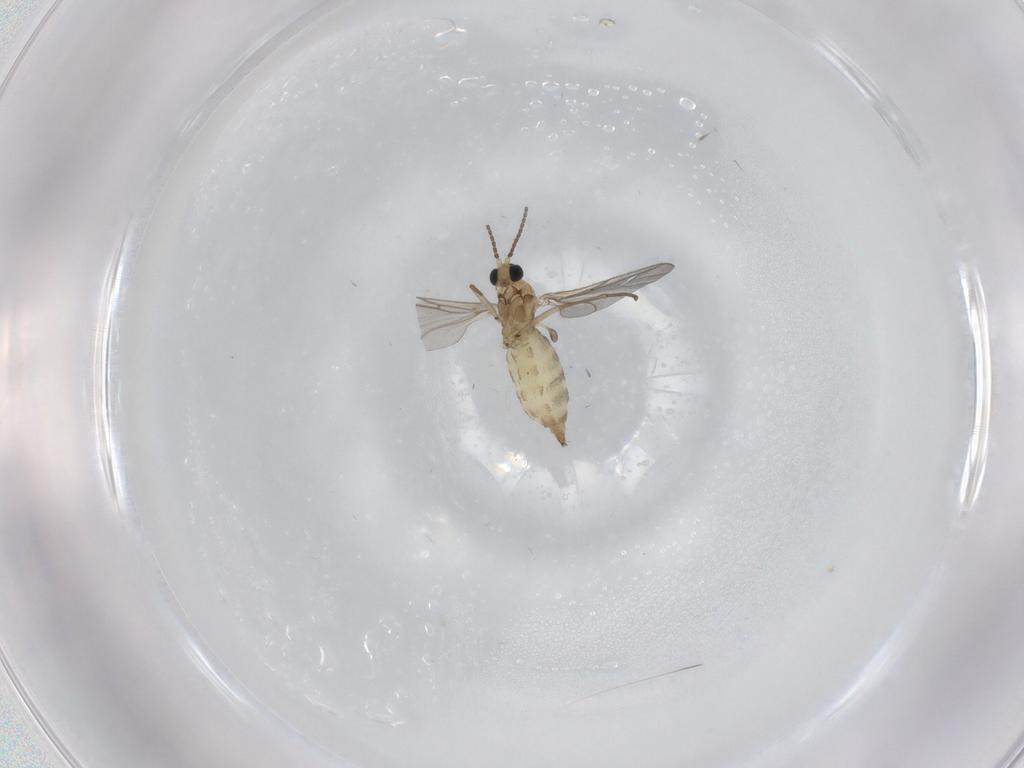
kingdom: Animalia
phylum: Arthropoda
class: Insecta
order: Diptera
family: Sciaridae
